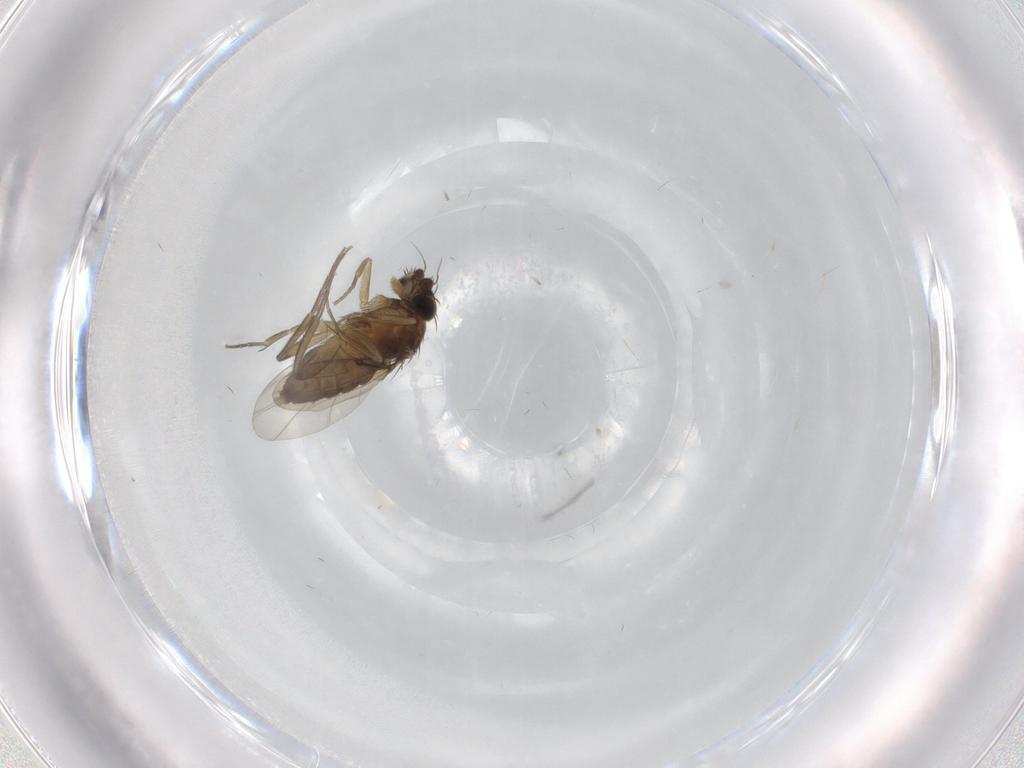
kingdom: Animalia
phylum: Arthropoda
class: Insecta
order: Diptera
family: Phoridae
